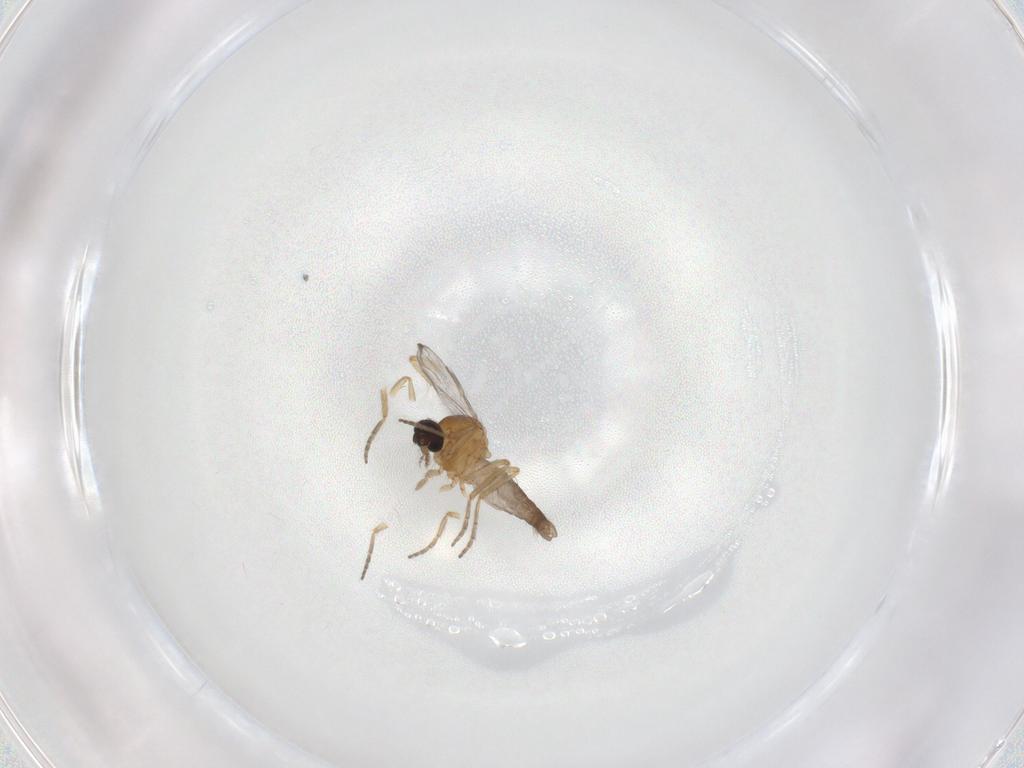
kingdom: Animalia
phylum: Arthropoda
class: Insecta
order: Diptera
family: Ceratopogonidae
